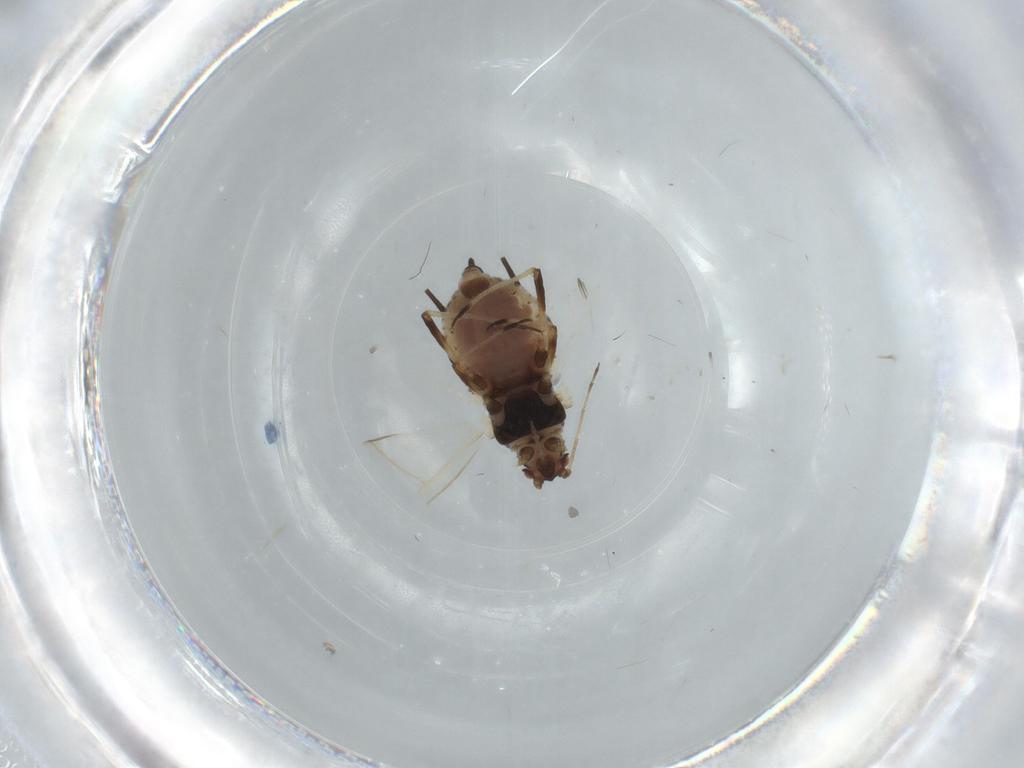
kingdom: Animalia
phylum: Arthropoda
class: Insecta
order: Hemiptera
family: Aphididae
